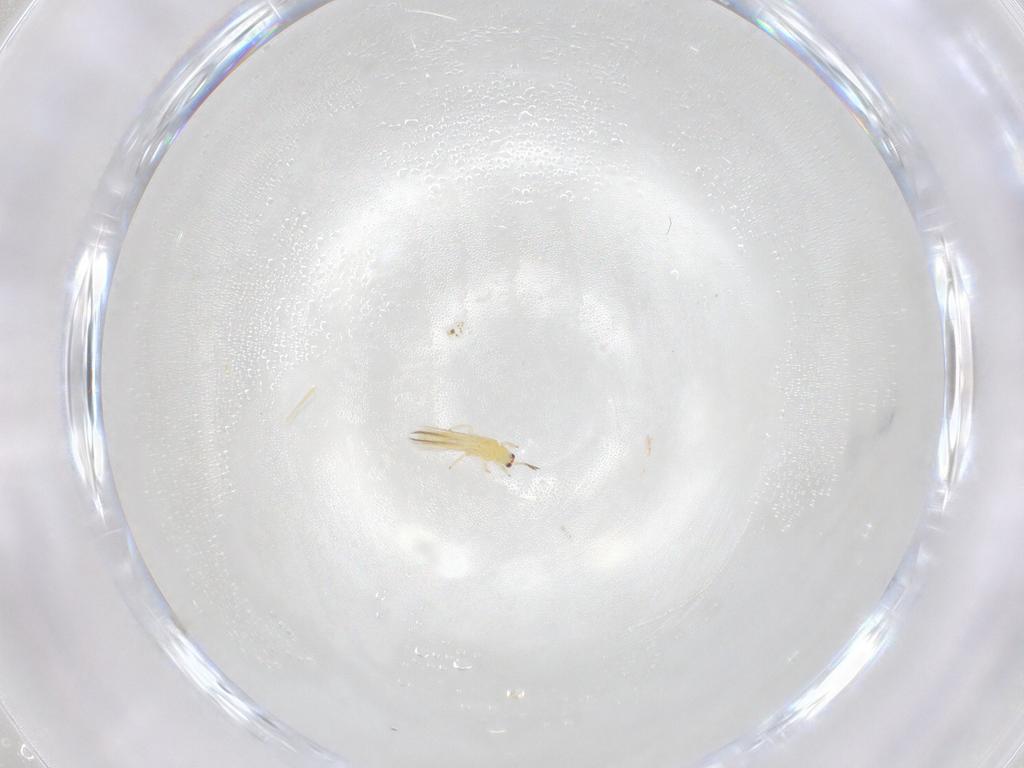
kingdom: Animalia
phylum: Arthropoda
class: Insecta
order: Thysanoptera
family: Thripidae
